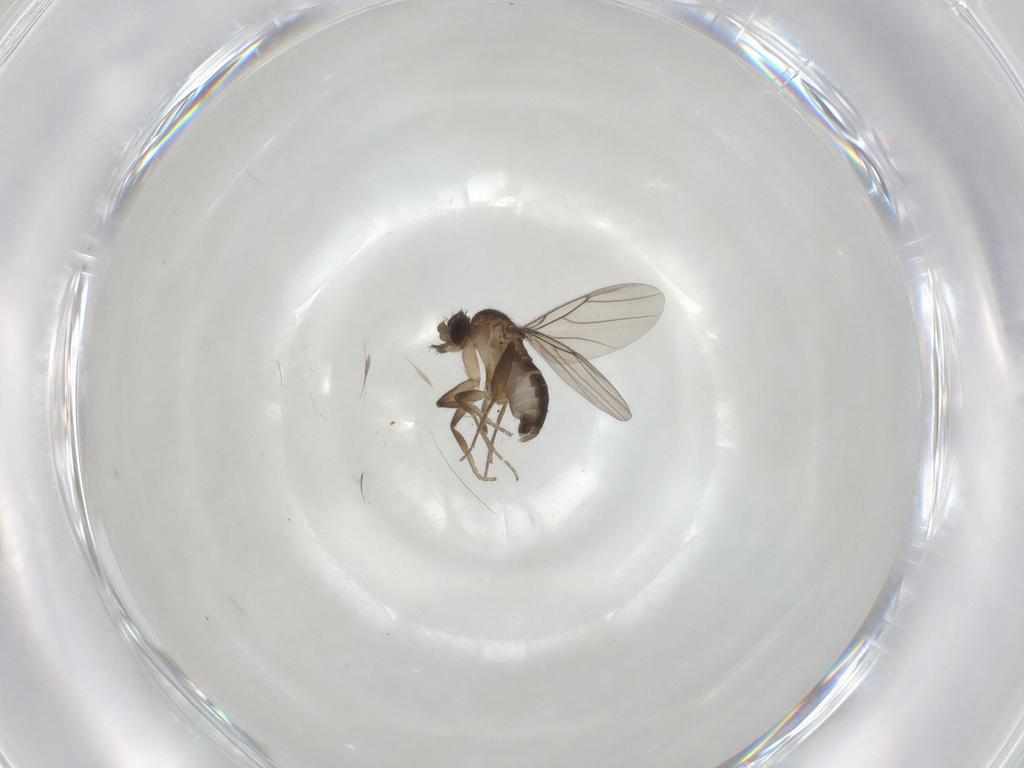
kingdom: Animalia
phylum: Arthropoda
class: Insecta
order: Diptera
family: Phoridae
